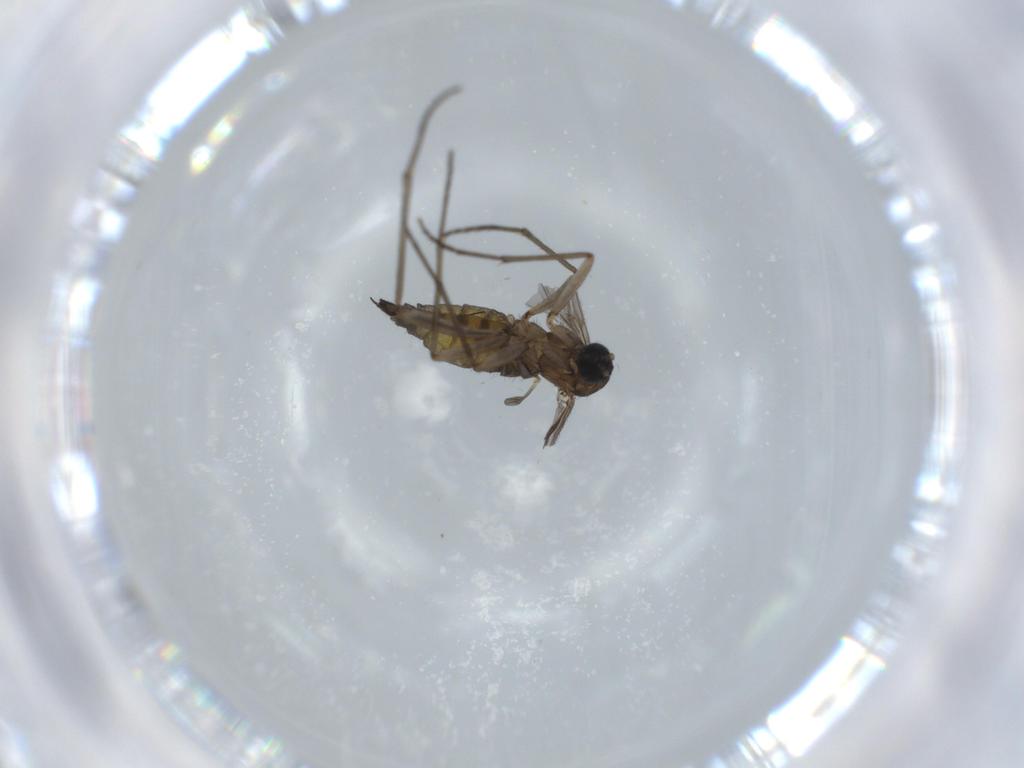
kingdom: Animalia
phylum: Arthropoda
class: Insecta
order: Diptera
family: Sciaridae
